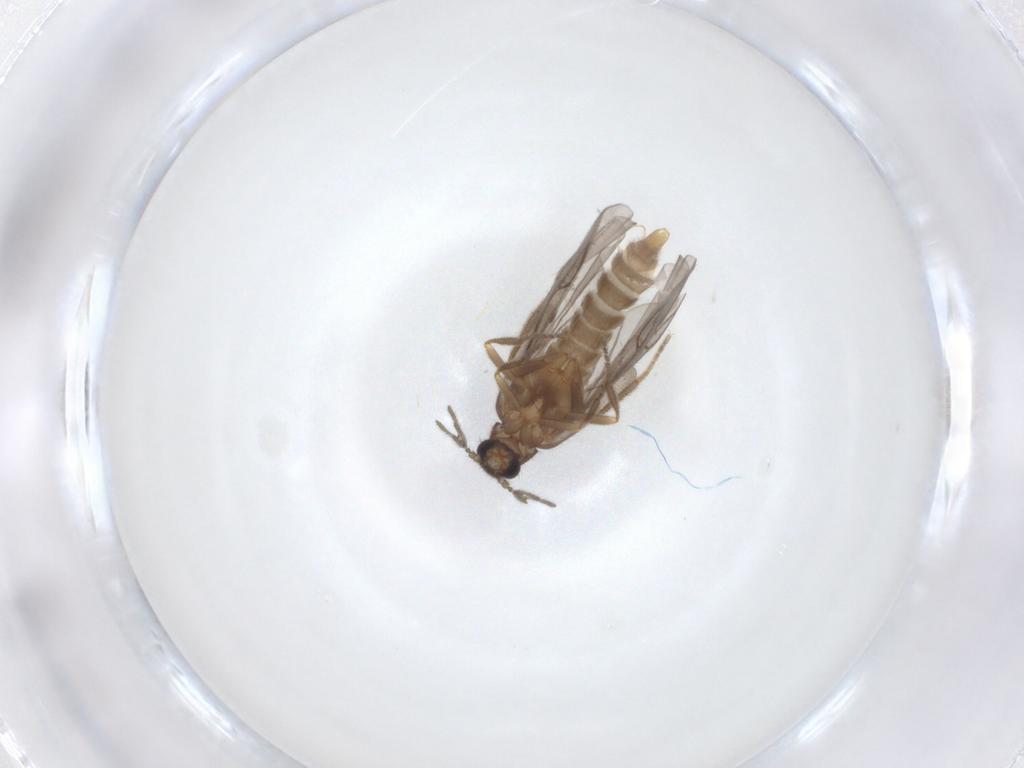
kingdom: Animalia
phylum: Arthropoda
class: Insecta
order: Coleoptera
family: Curculionidae
